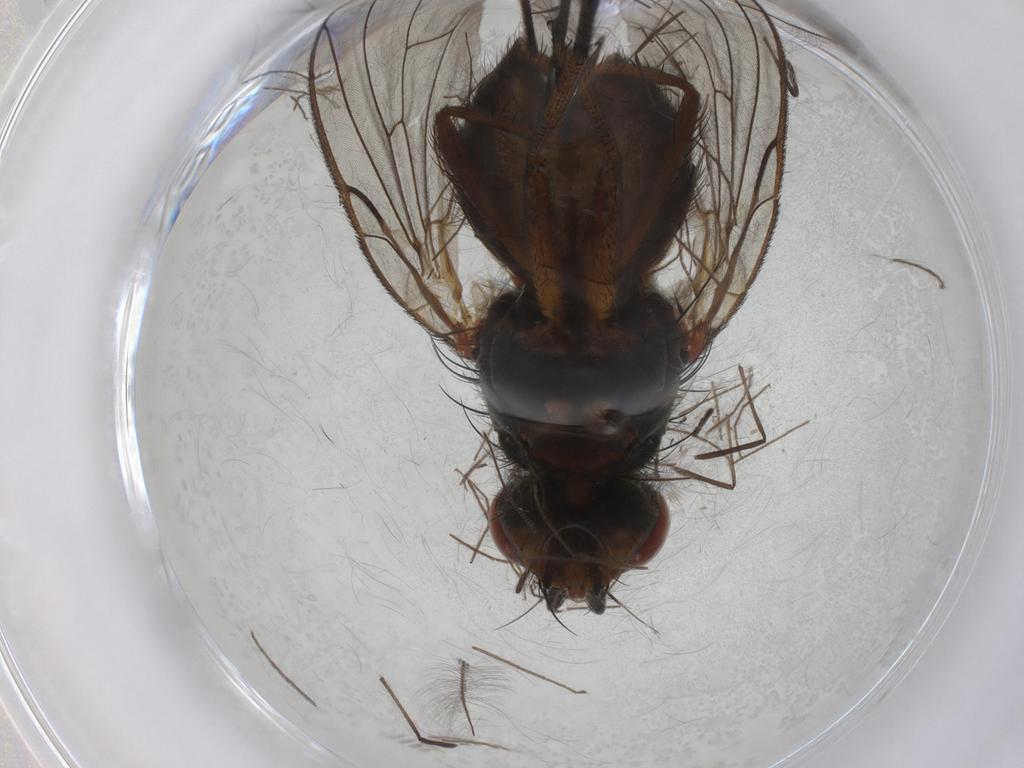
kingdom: Animalia
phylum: Arthropoda
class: Insecta
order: Diptera
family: Anthomyiidae
